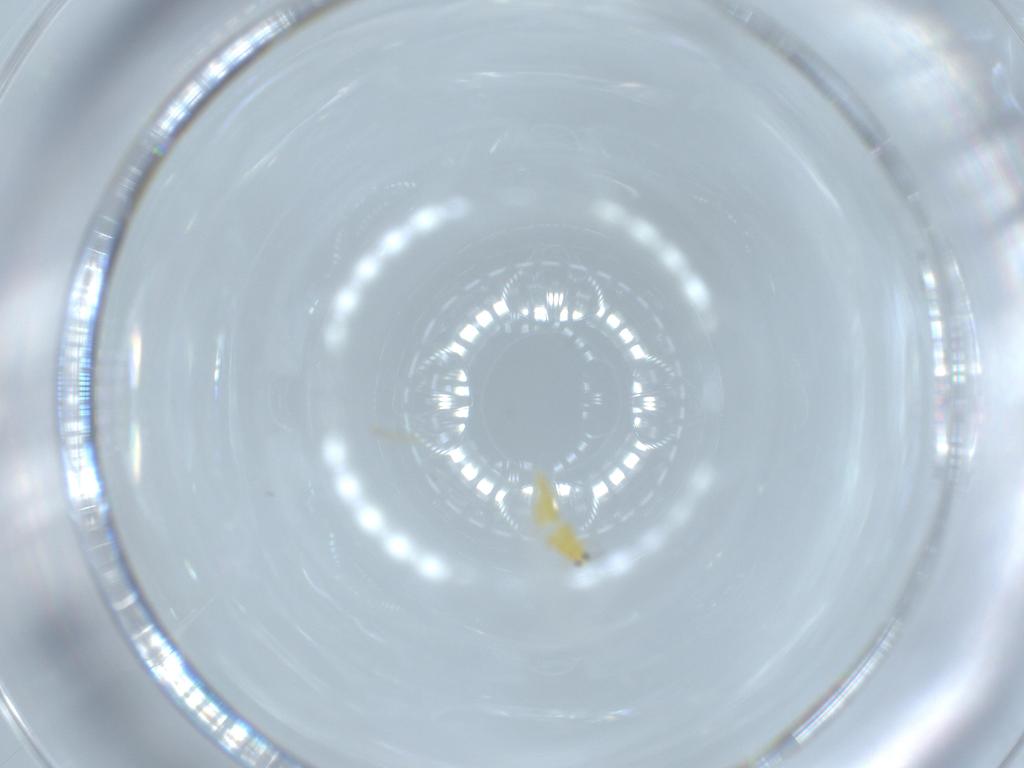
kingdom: Animalia
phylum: Arthropoda
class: Insecta
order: Thysanoptera
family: Thripidae
